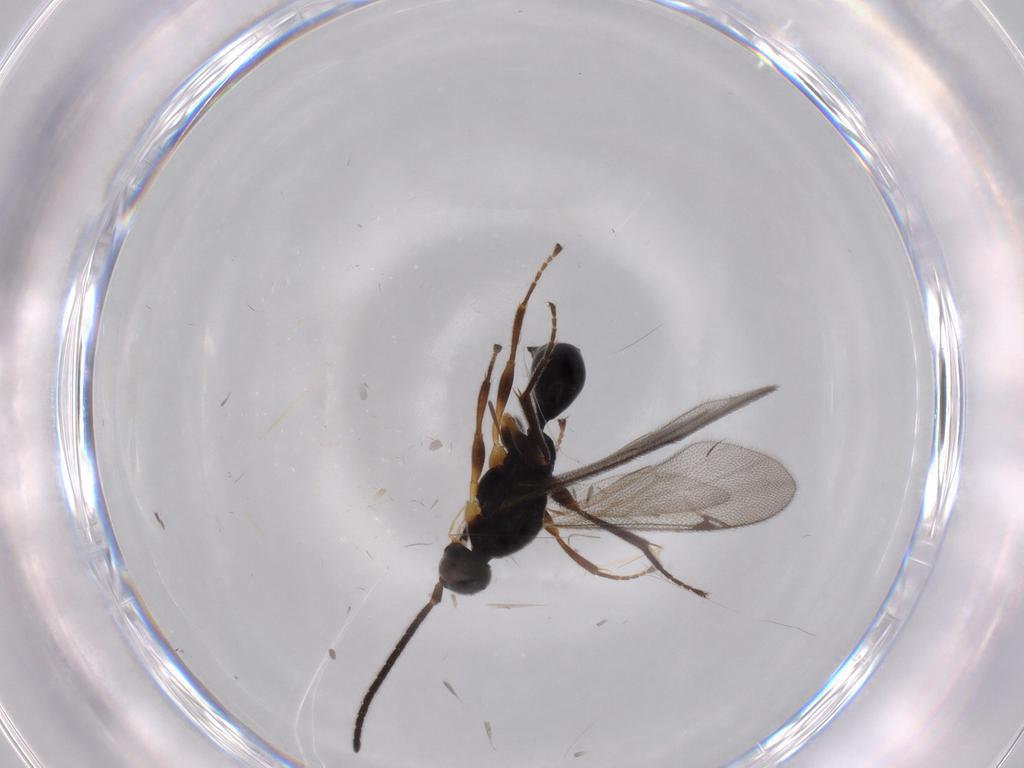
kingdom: Animalia
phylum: Arthropoda
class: Insecta
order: Hymenoptera
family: Proctotrupidae
